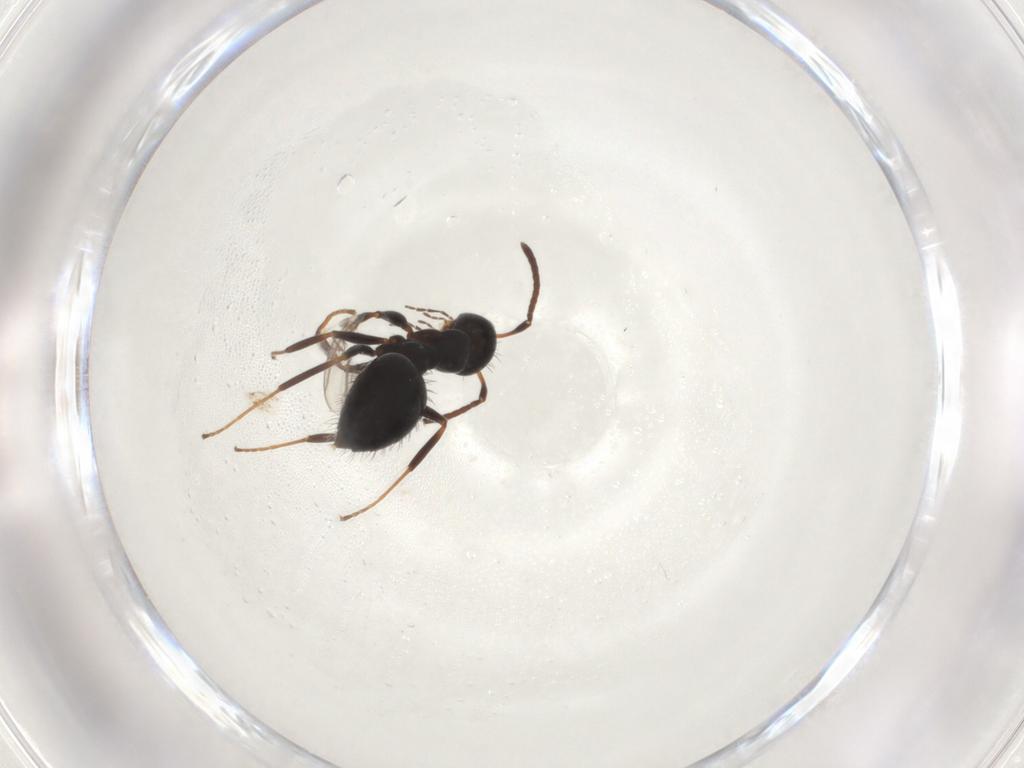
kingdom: Animalia
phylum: Arthropoda
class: Insecta
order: Hymenoptera
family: Formicidae
